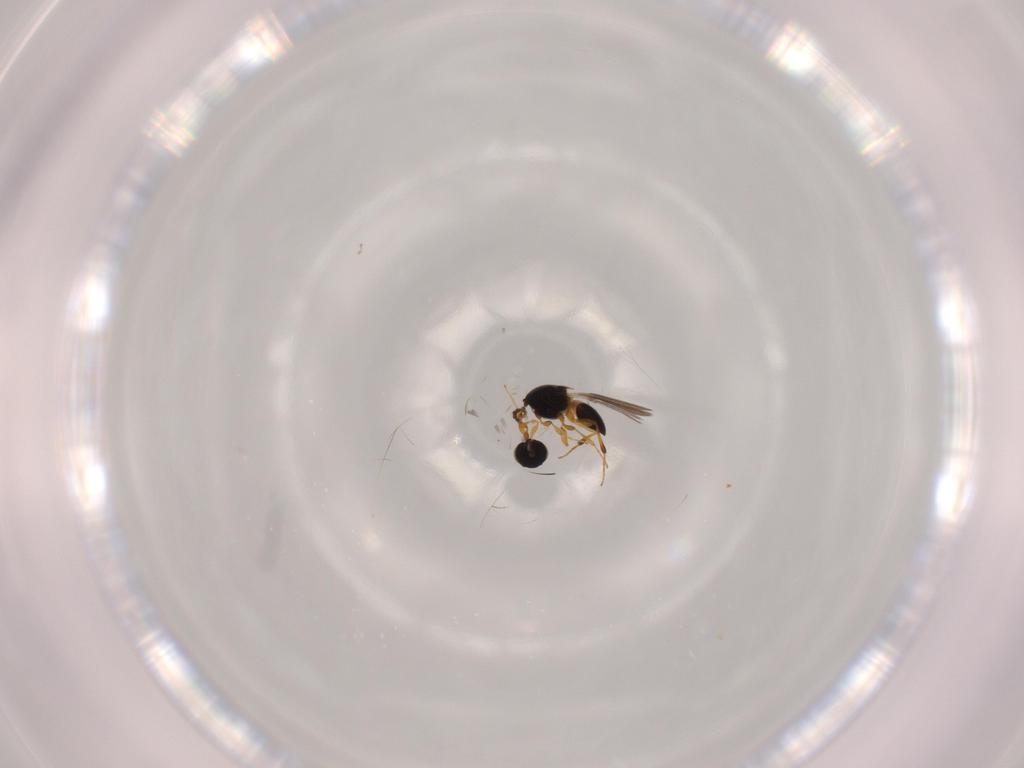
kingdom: Animalia
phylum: Arthropoda
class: Insecta
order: Hymenoptera
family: Platygastridae
